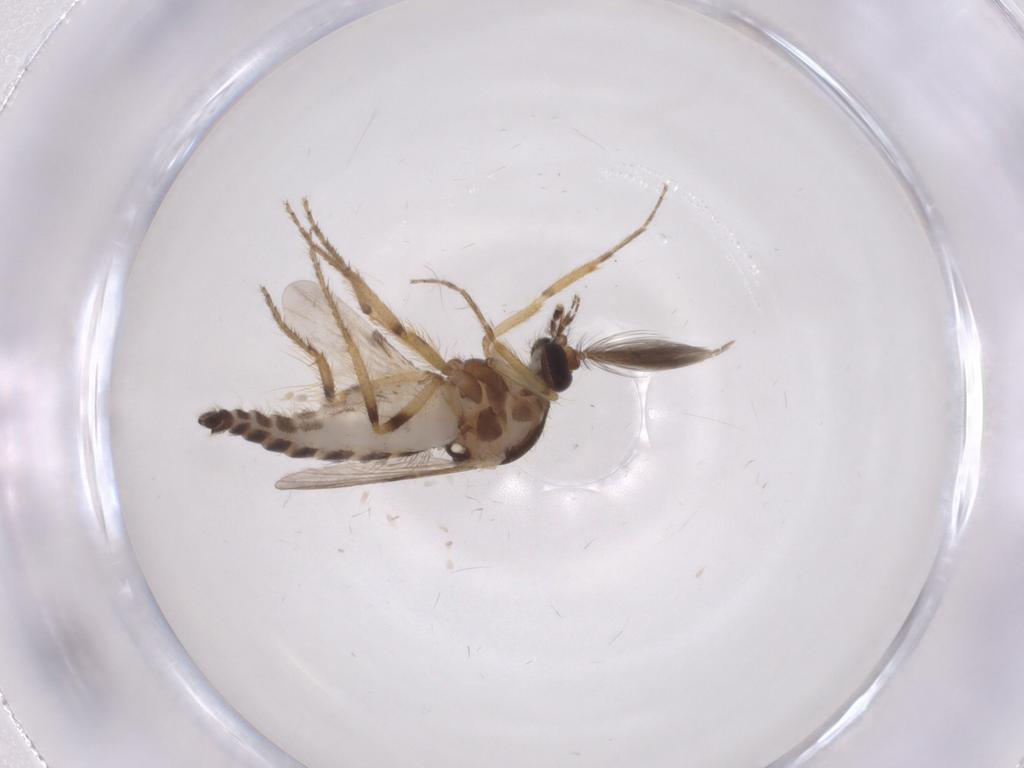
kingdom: Animalia
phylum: Arthropoda
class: Insecta
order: Diptera
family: Ceratopogonidae
